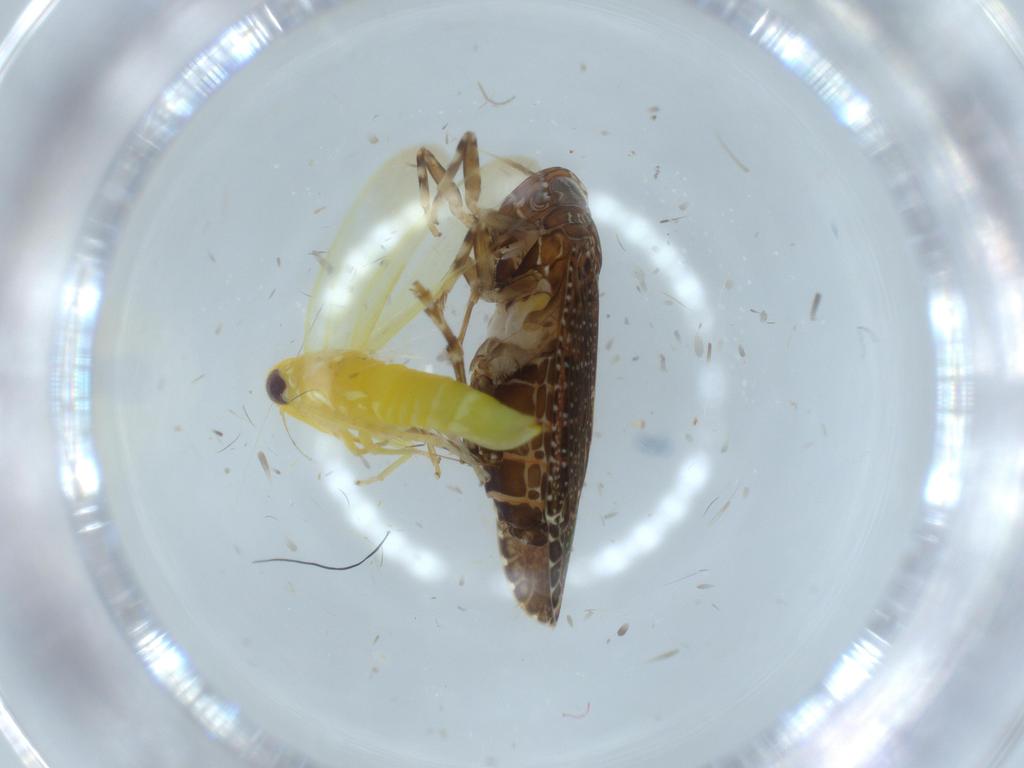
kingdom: Animalia
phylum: Arthropoda
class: Insecta
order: Hemiptera
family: Cicadellidae
